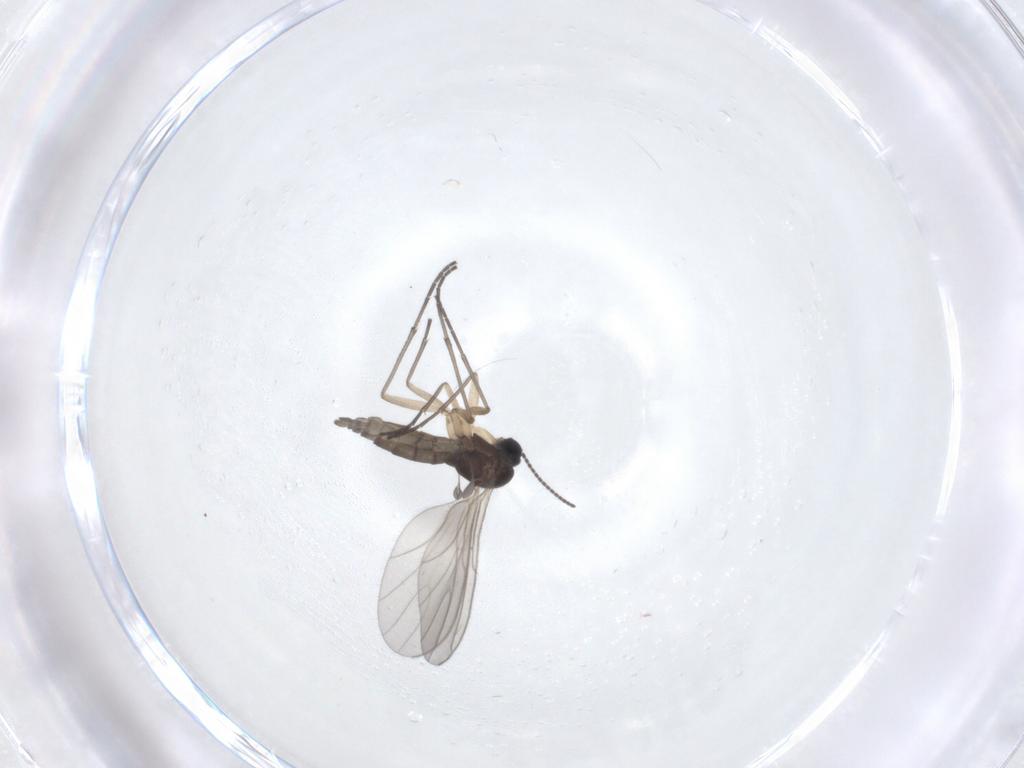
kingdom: Animalia
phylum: Arthropoda
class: Insecta
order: Diptera
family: Sciaridae
